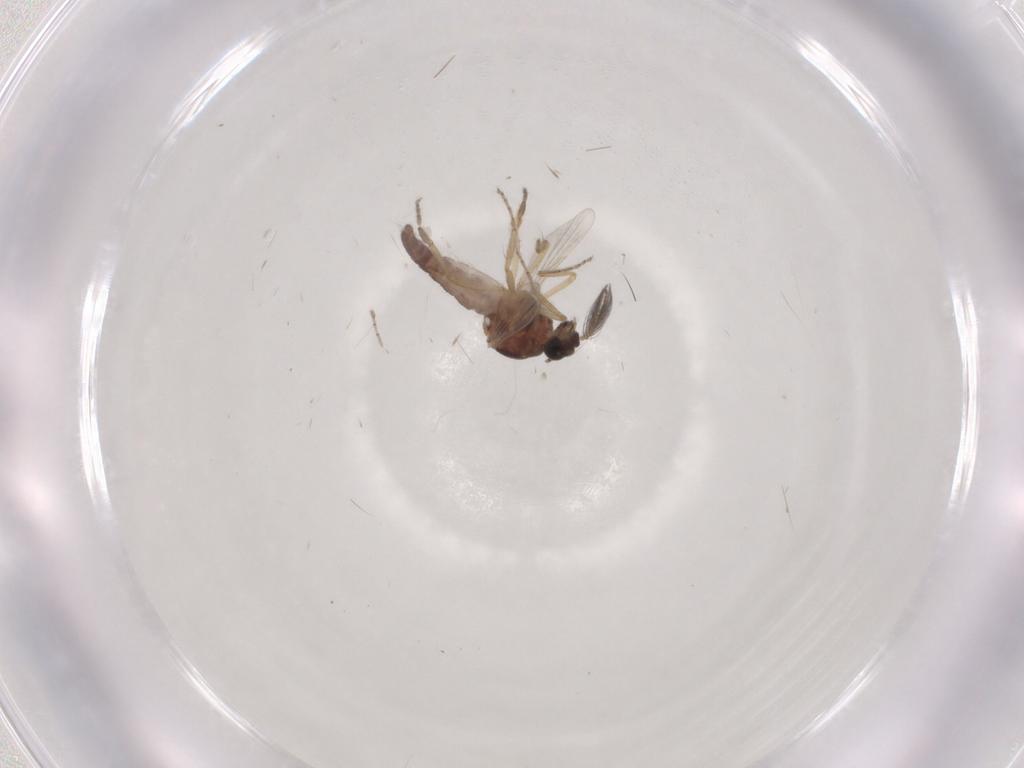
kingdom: Animalia
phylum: Arthropoda
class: Insecta
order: Diptera
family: Ceratopogonidae
